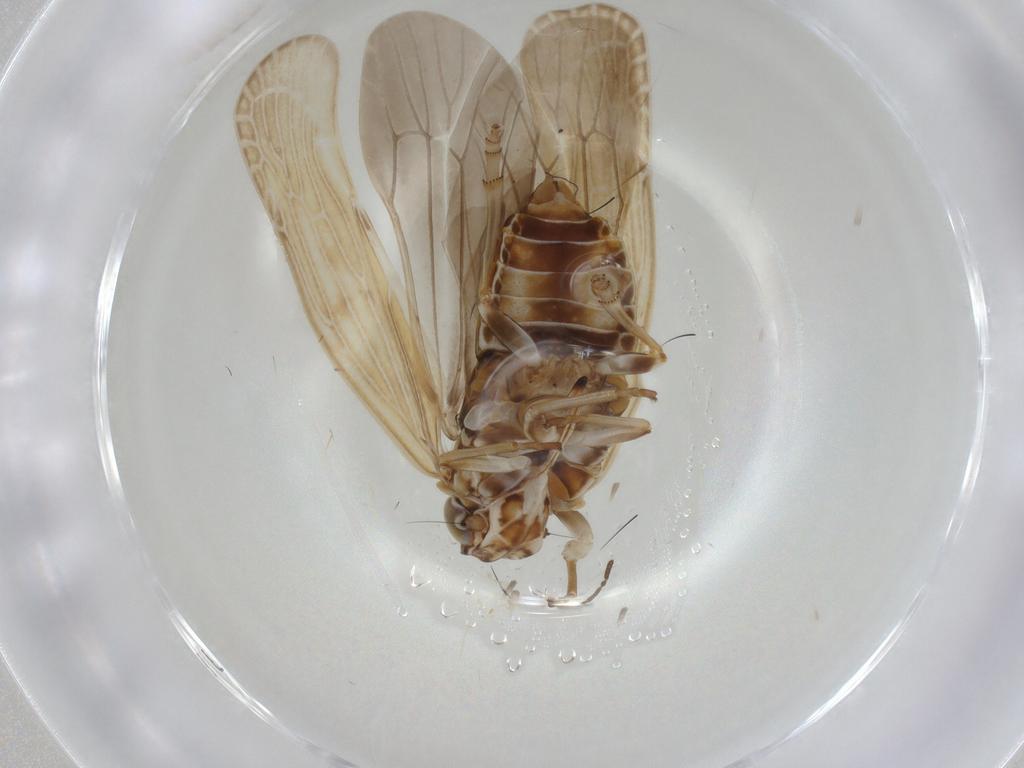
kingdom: Animalia
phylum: Arthropoda
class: Insecta
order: Hemiptera
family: Achilidae
